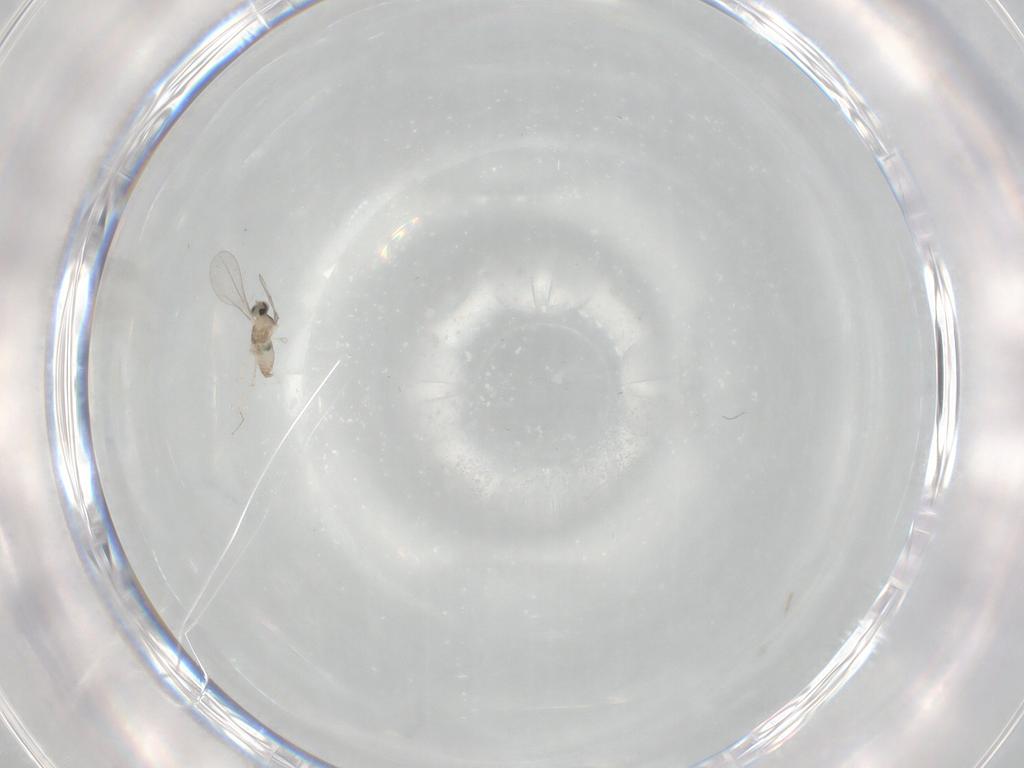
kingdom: Animalia
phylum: Arthropoda
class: Insecta
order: Diptera
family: Cecidomyiidae
